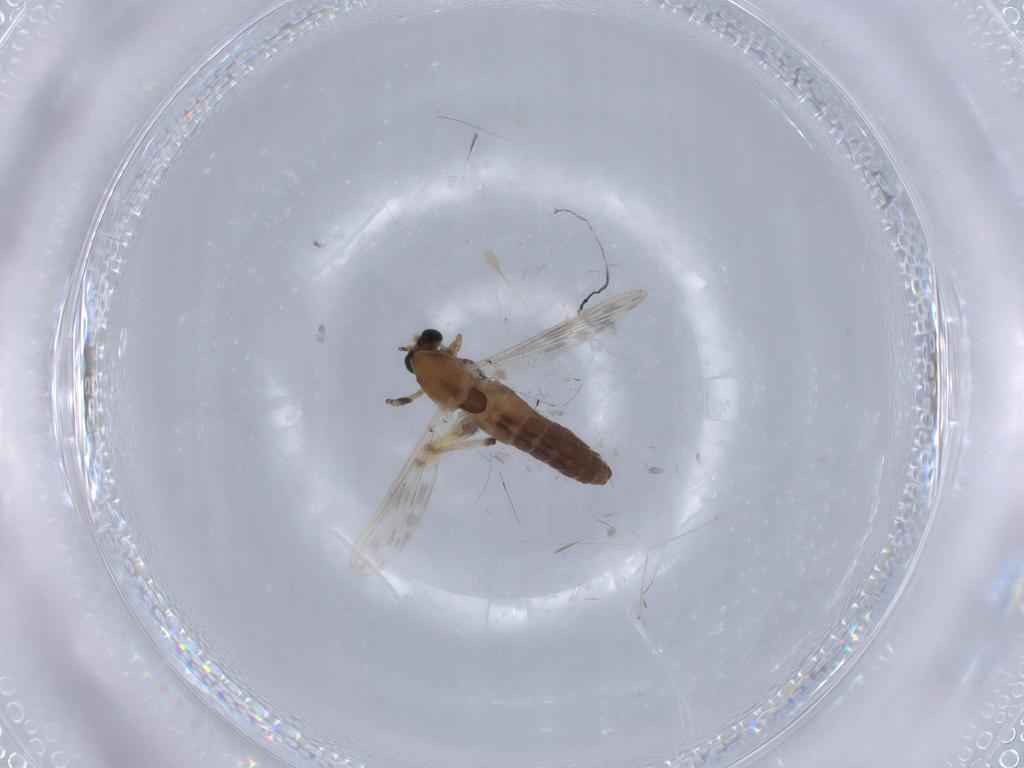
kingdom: Animalia
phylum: Arthropoda
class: Insecta
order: Diptera
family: Chironomidae
